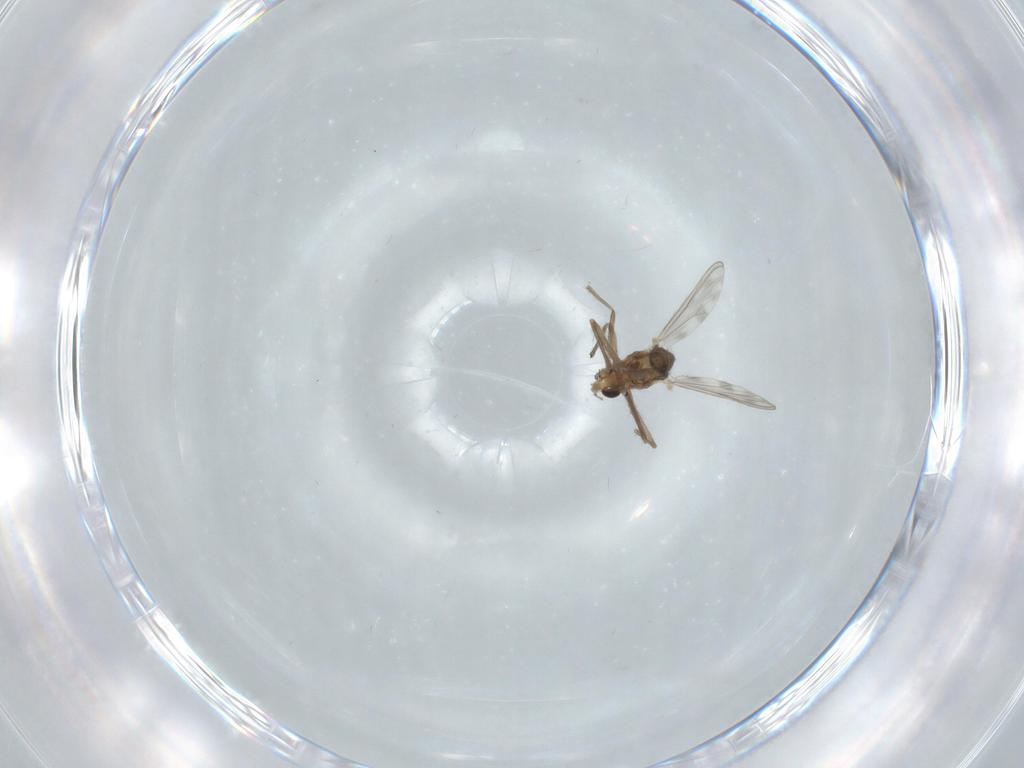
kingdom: Animalia
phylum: Arthropoda
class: Insecta
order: Diptera
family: Chironomidae
